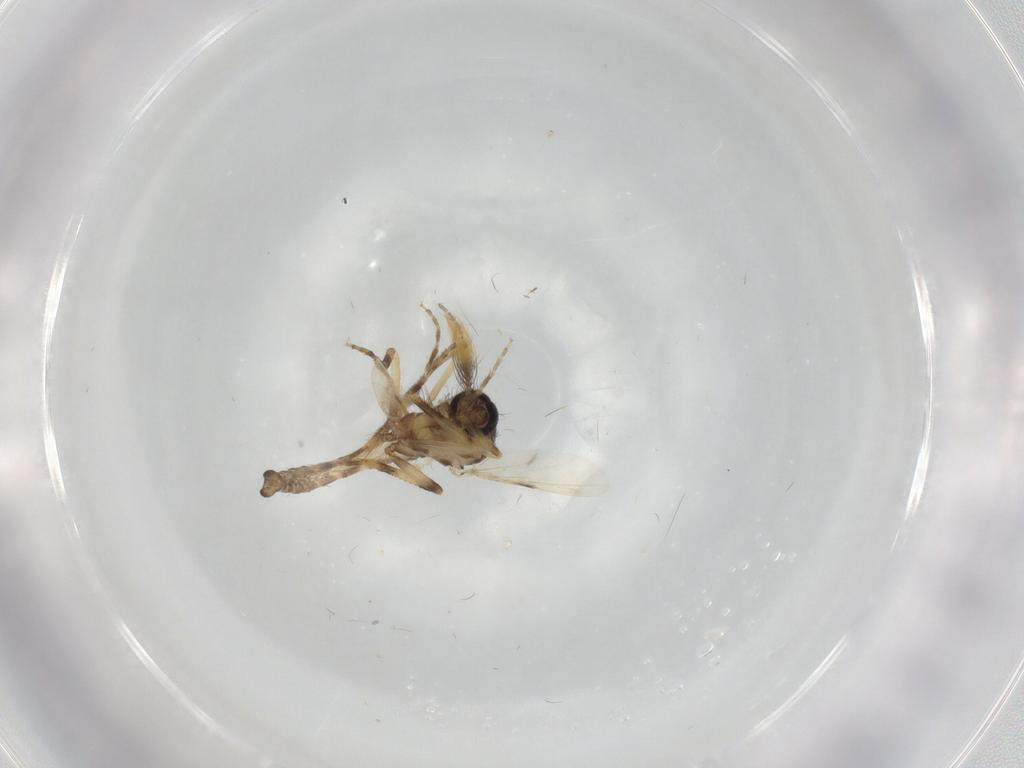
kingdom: Animalia
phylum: Arthropoda
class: Insecta
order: Diptera
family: Ceratopogonidae
